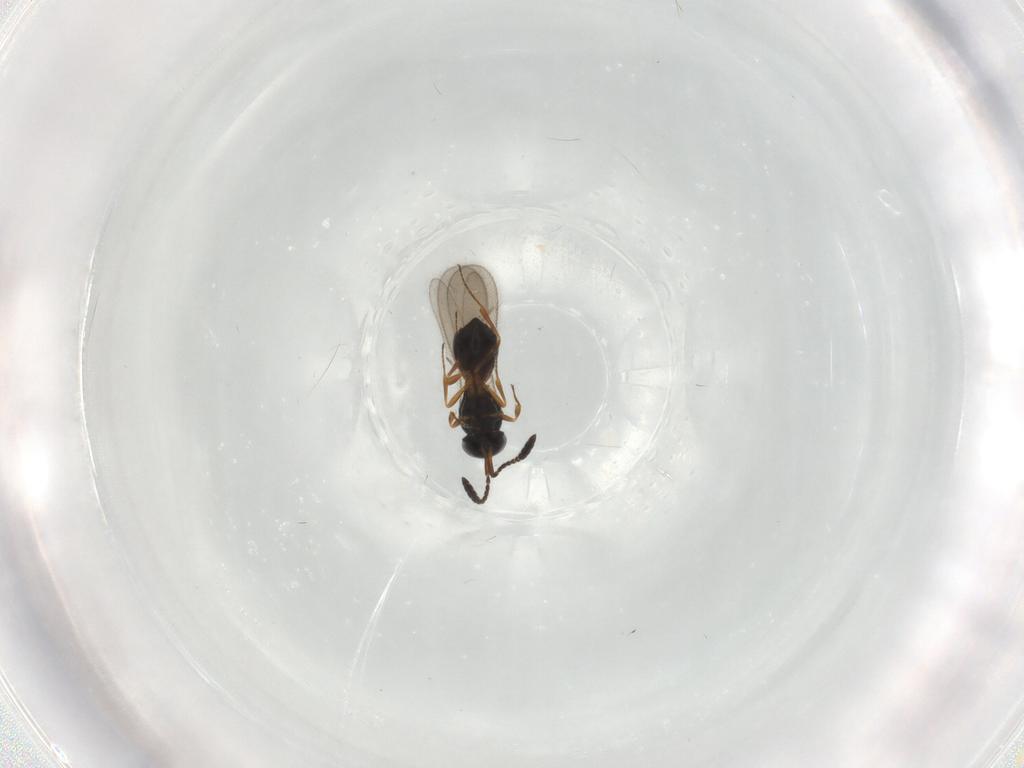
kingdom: Animalia
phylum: Arthropoda
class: Insecta
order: Hymenoptera
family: Scelionidae
